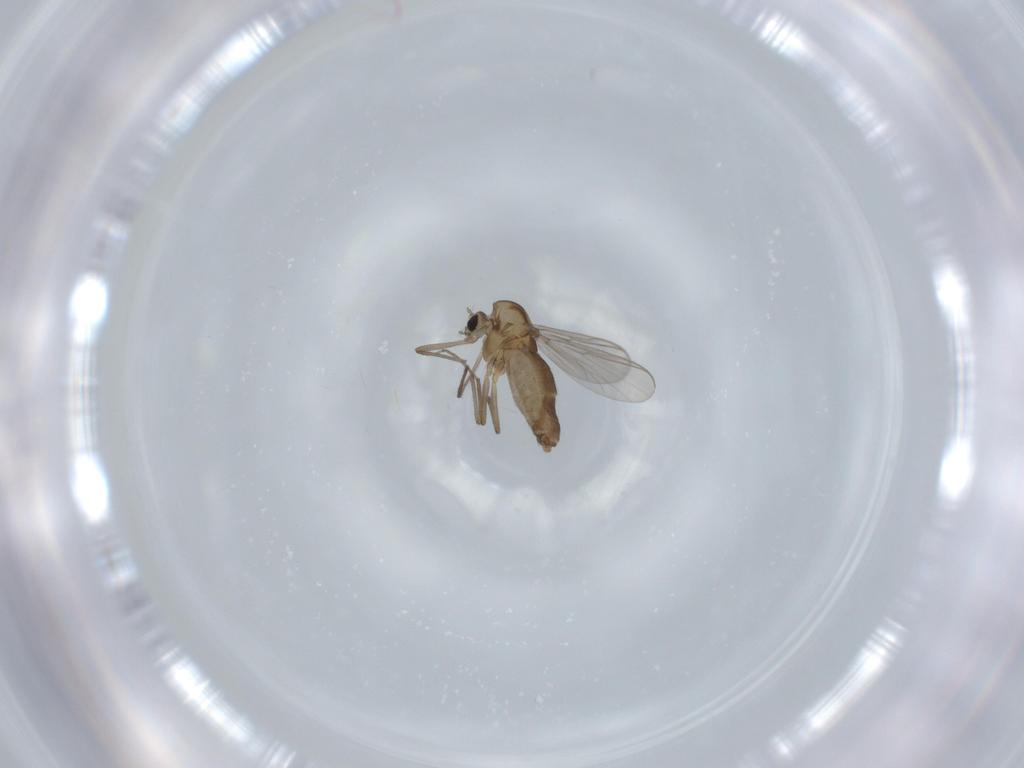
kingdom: Animalia
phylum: Arthropoda
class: Insecta
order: Diptera
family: Chironomidae
